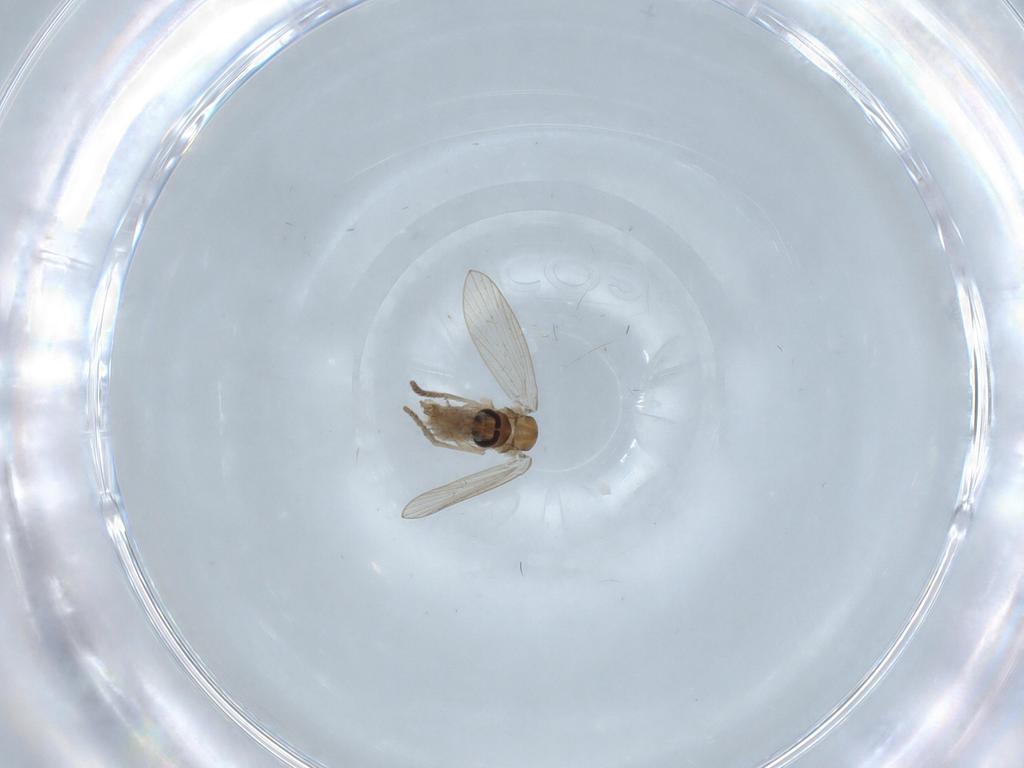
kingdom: Animalia
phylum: Arthropoda
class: Insecta
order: Diptera
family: Psychodidae
